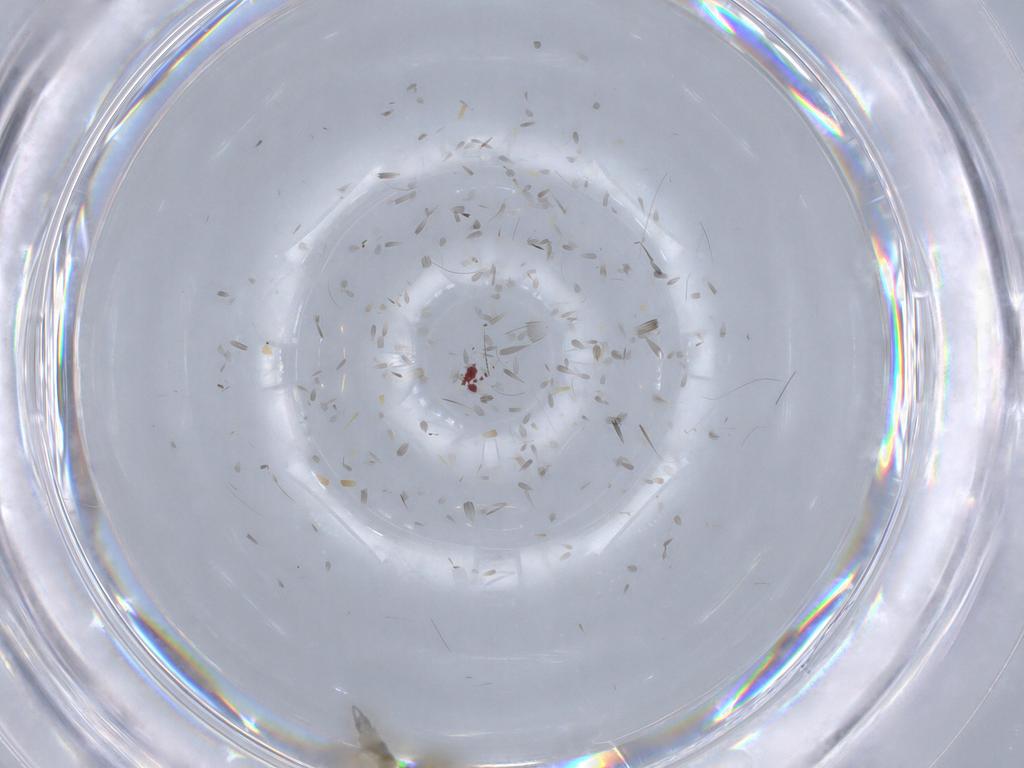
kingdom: Animalia
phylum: Arthropoda
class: Insecta
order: Diptera
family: Chironomidae
